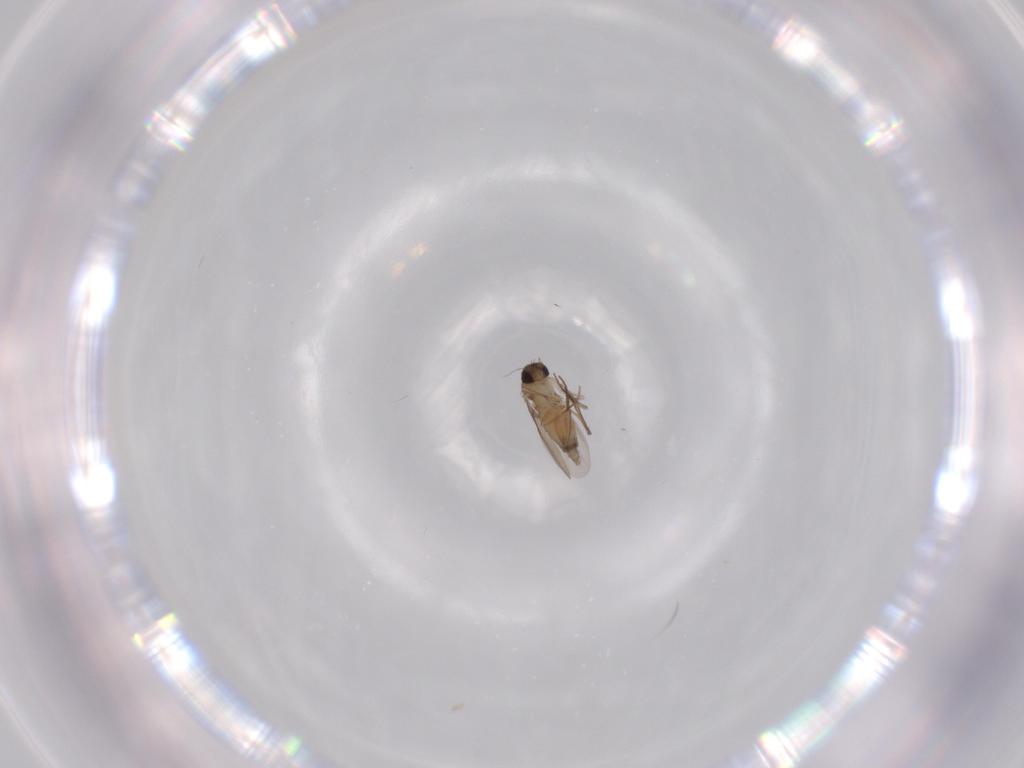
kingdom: Animalia
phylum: Arthropoda
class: Insecta
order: Diptera
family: Phoridae
